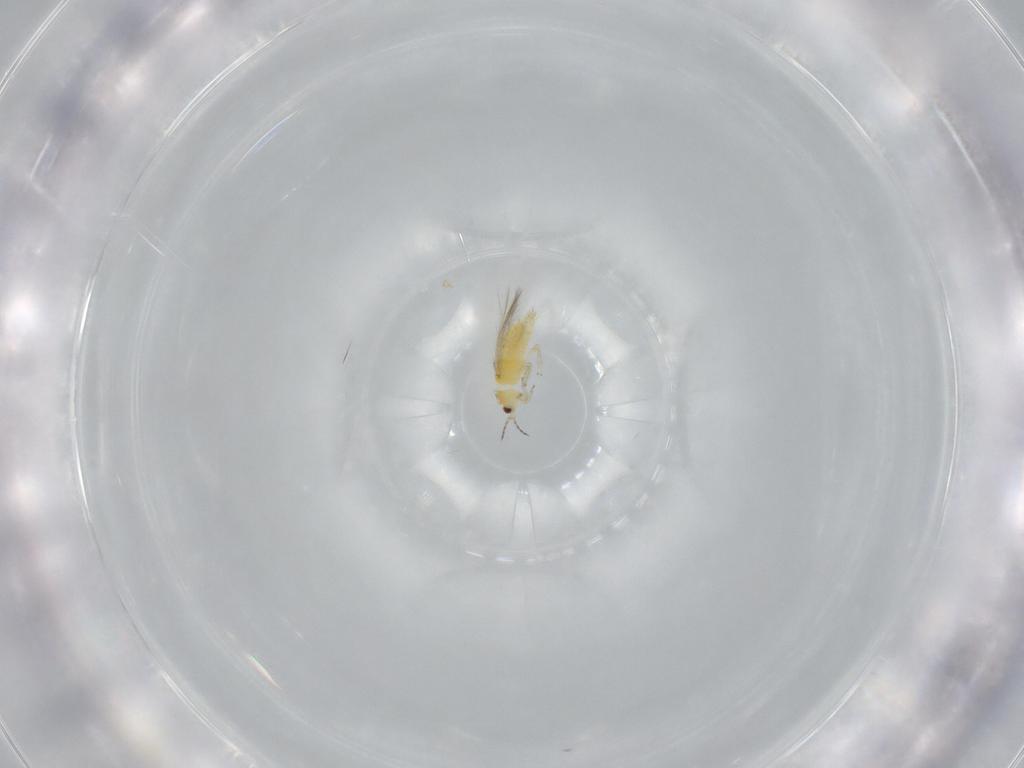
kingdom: Animalia
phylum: Arthropoda
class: Insecta
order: Thysanoptera
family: Thripidae
